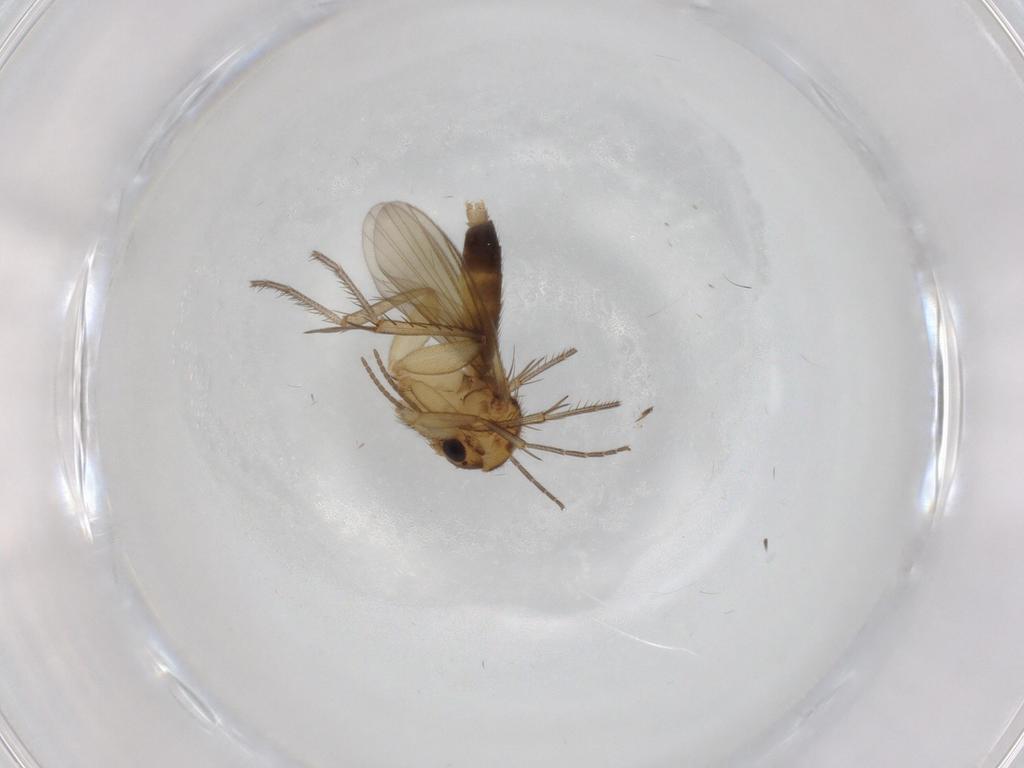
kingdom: Animalia
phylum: Arthropoda
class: Insecta
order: Diptera
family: Mycetophilidae
